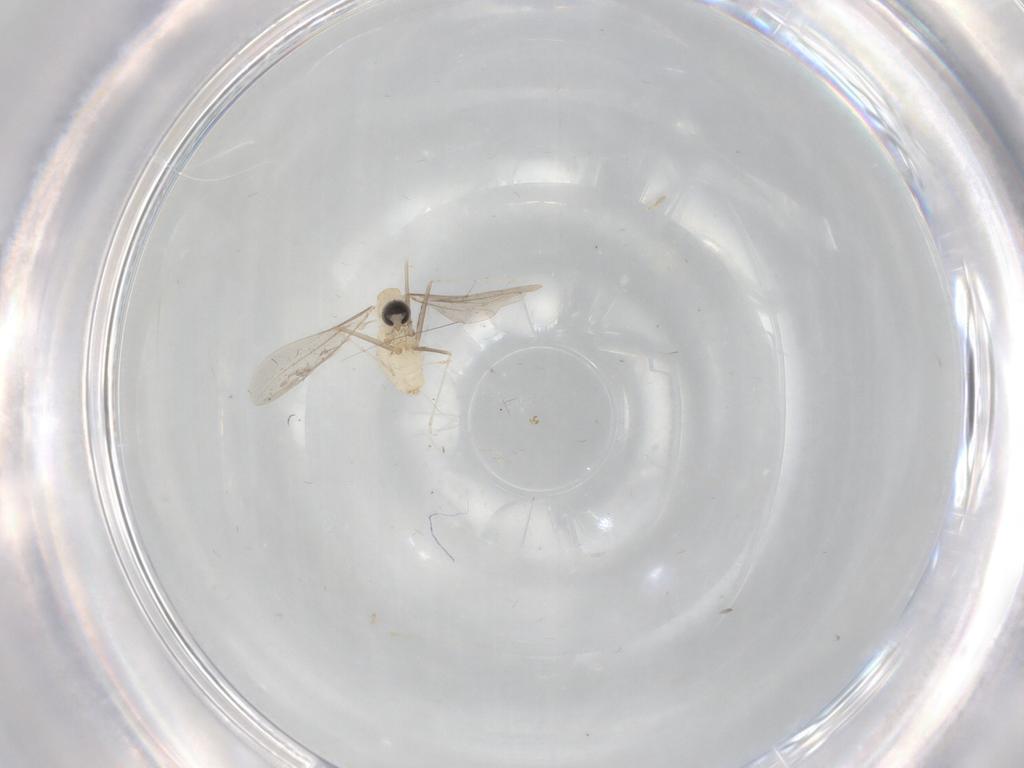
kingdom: Animalia
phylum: Arthropoda
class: Insecta
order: Diptera
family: Cecidomyiidae
